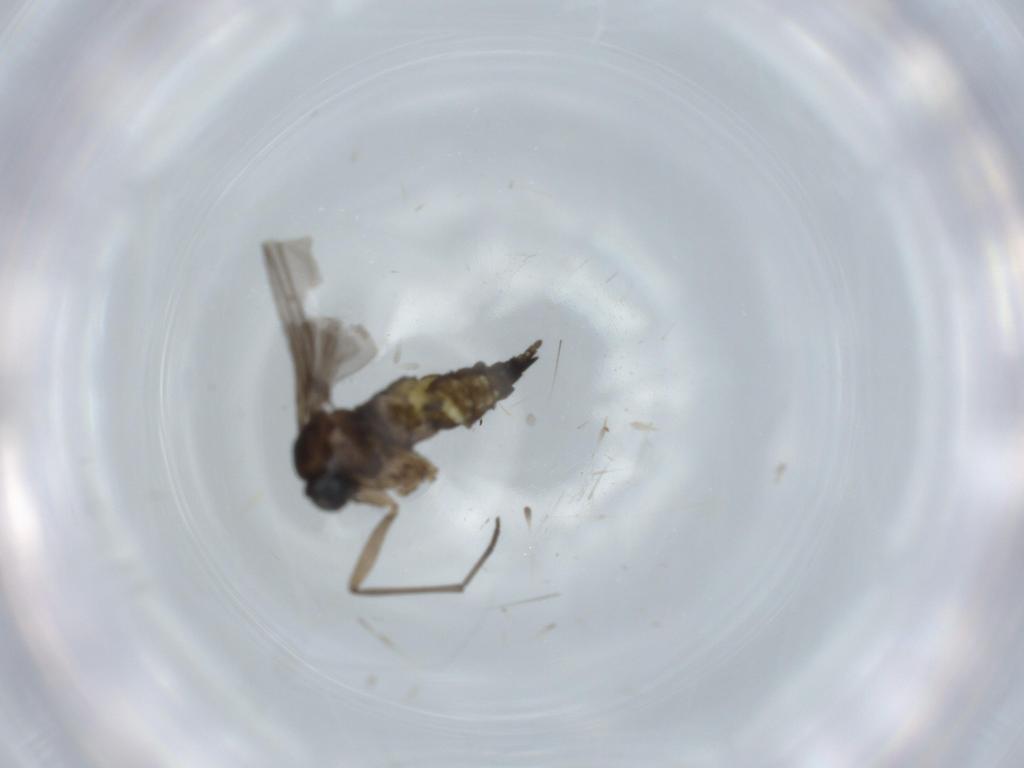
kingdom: Animalia
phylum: Arthropoda
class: Insecta
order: Diptera
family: Sciaridae
